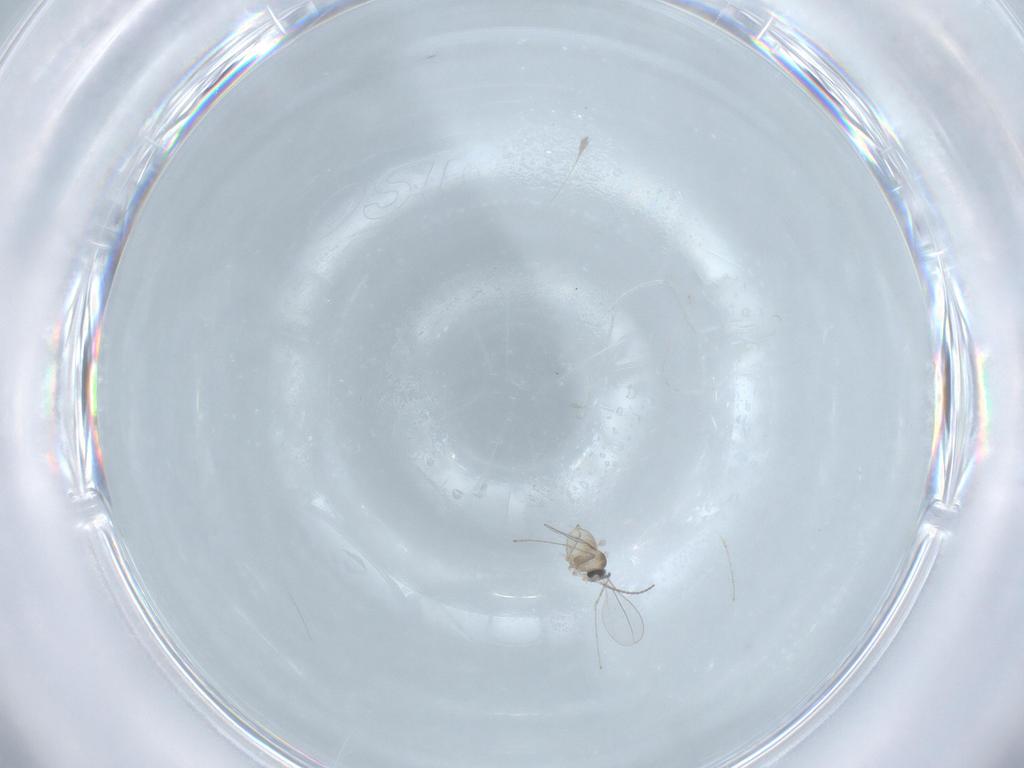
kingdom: Animalia
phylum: Arthropoda
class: Insecta
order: Diptera
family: Cecidomyiidae
